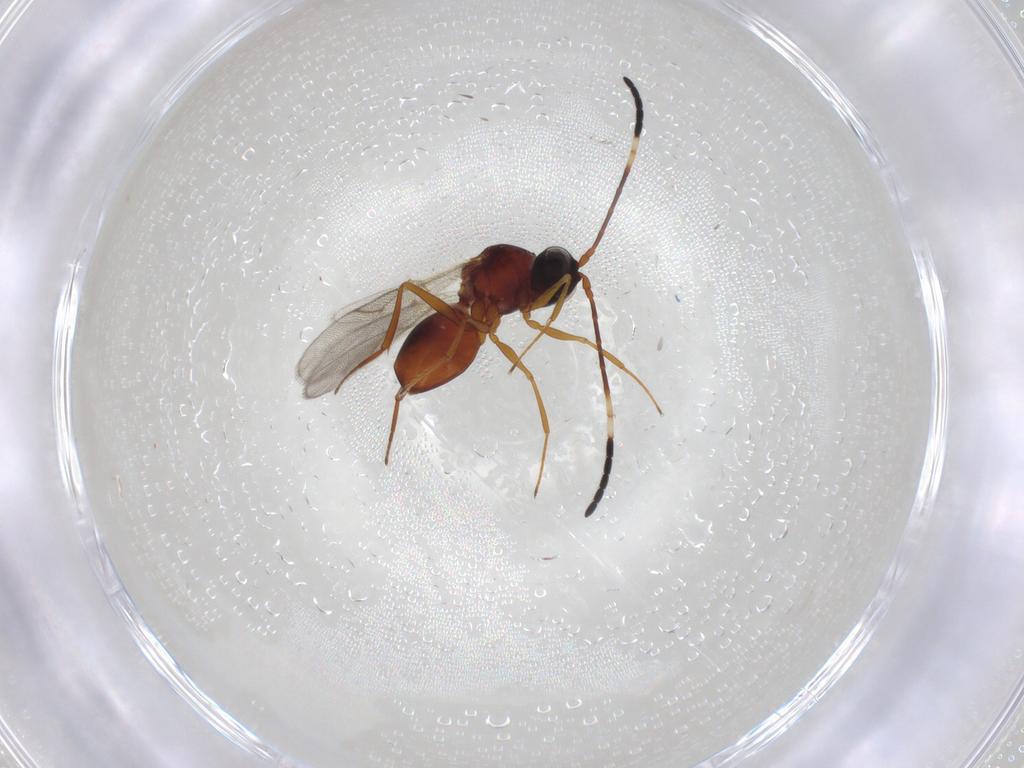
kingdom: Animalia
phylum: Arthropoda
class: Insecta
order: Hymenoptera
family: Figitidae
